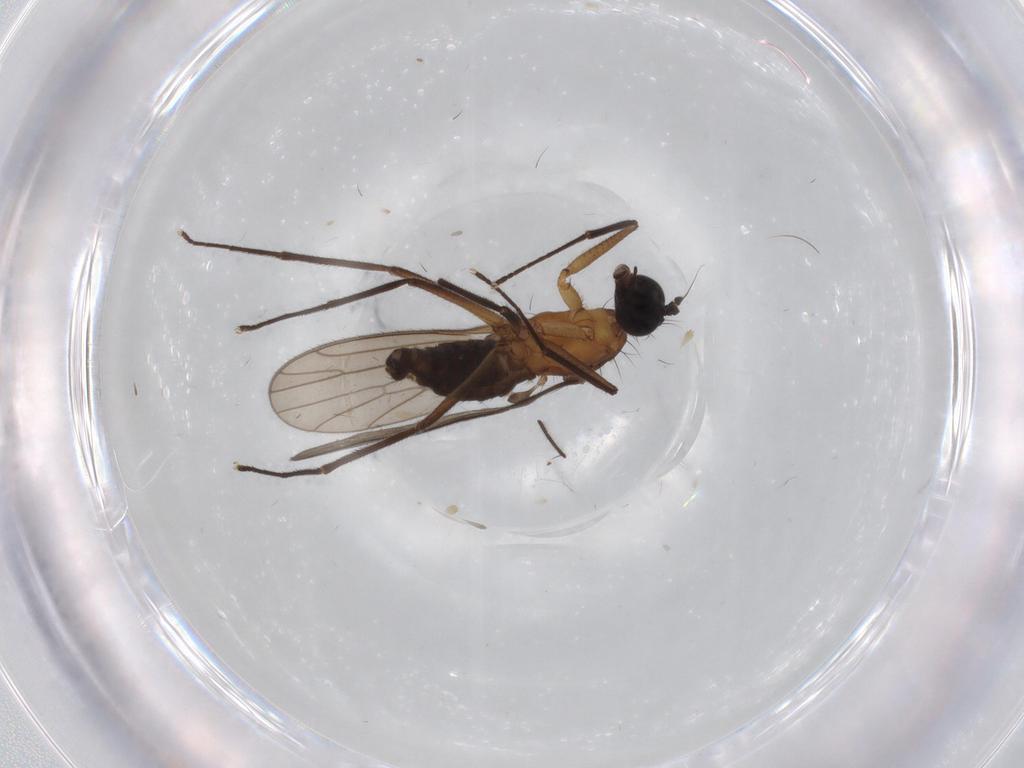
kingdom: Animalia
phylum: Arthropoda
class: Insecta
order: Diptera
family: Ditomyiidae
